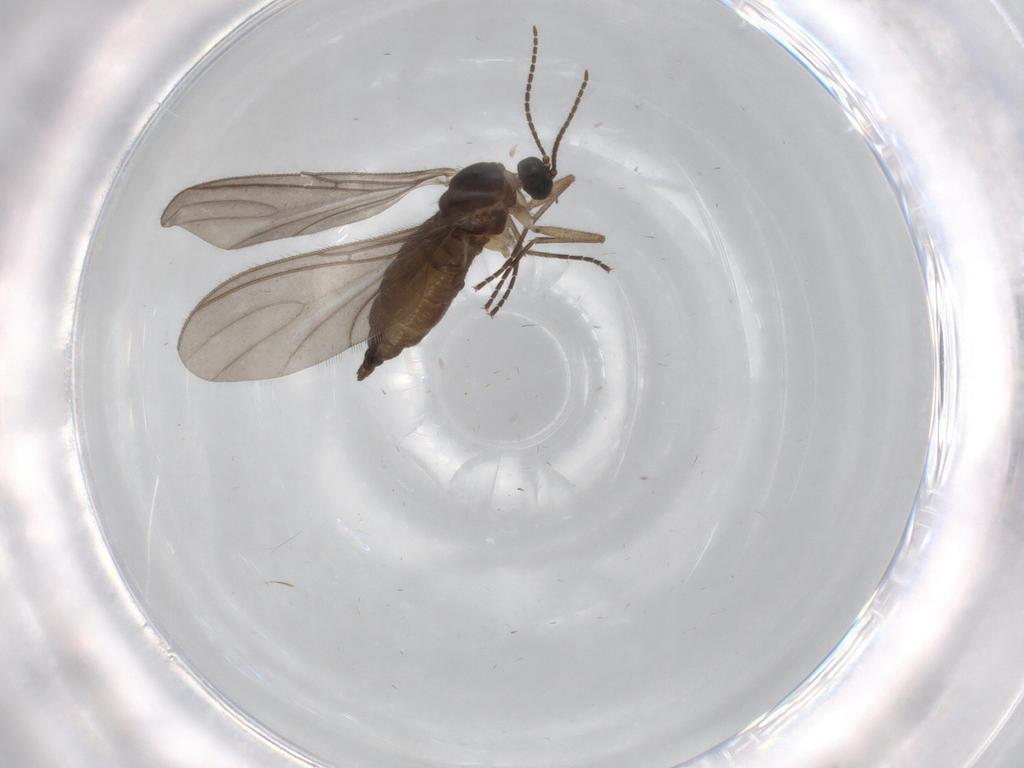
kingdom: Animalia
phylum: Arthropoda
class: Insecta
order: Diptera
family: Sciaridae
